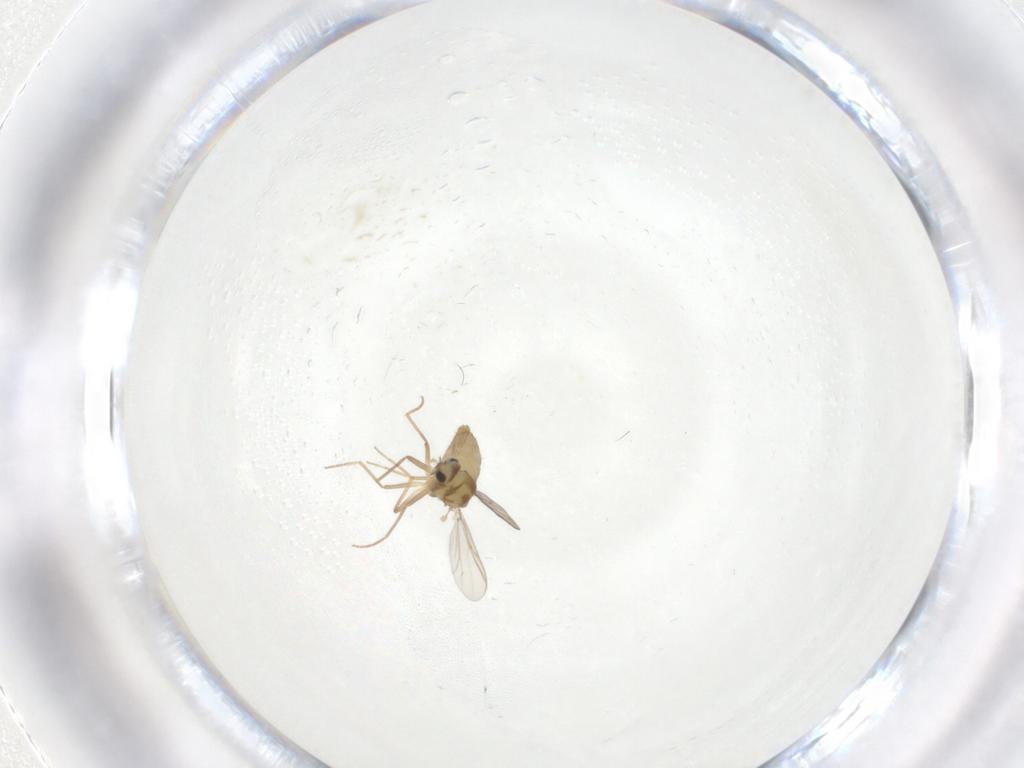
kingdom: Animalia
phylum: Arthropoda
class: Insecta
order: Diptera
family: Chironomidae
